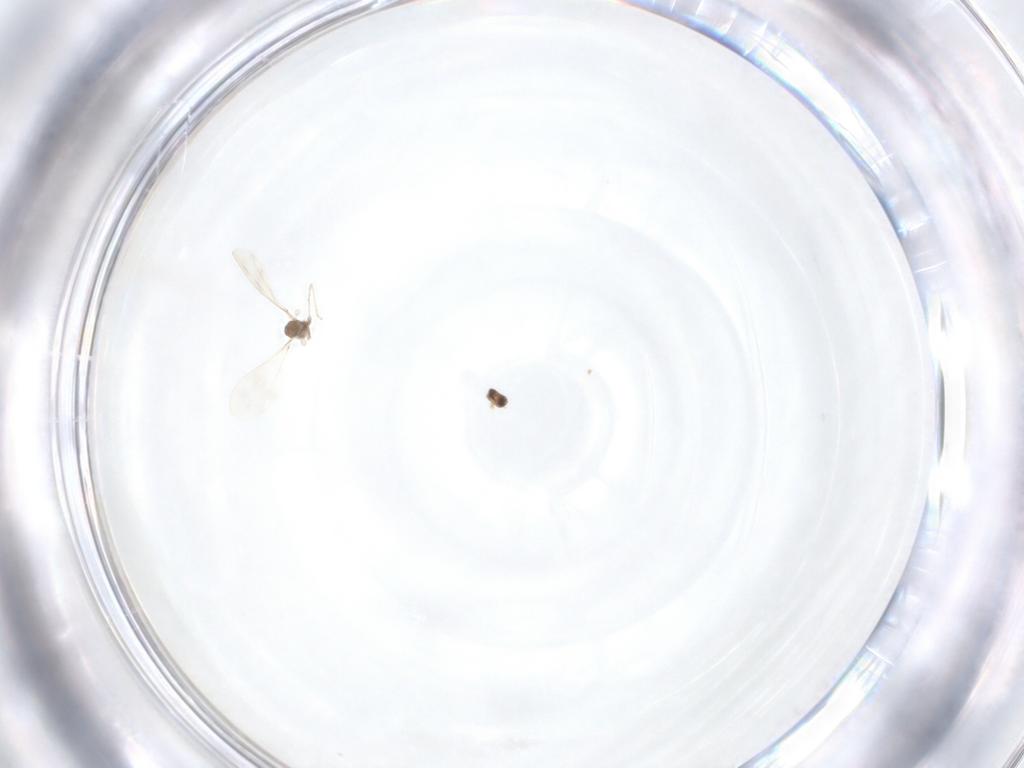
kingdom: Animalia
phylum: Arthropoda
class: Insecta
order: Diptera
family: Cecidomyiidae
